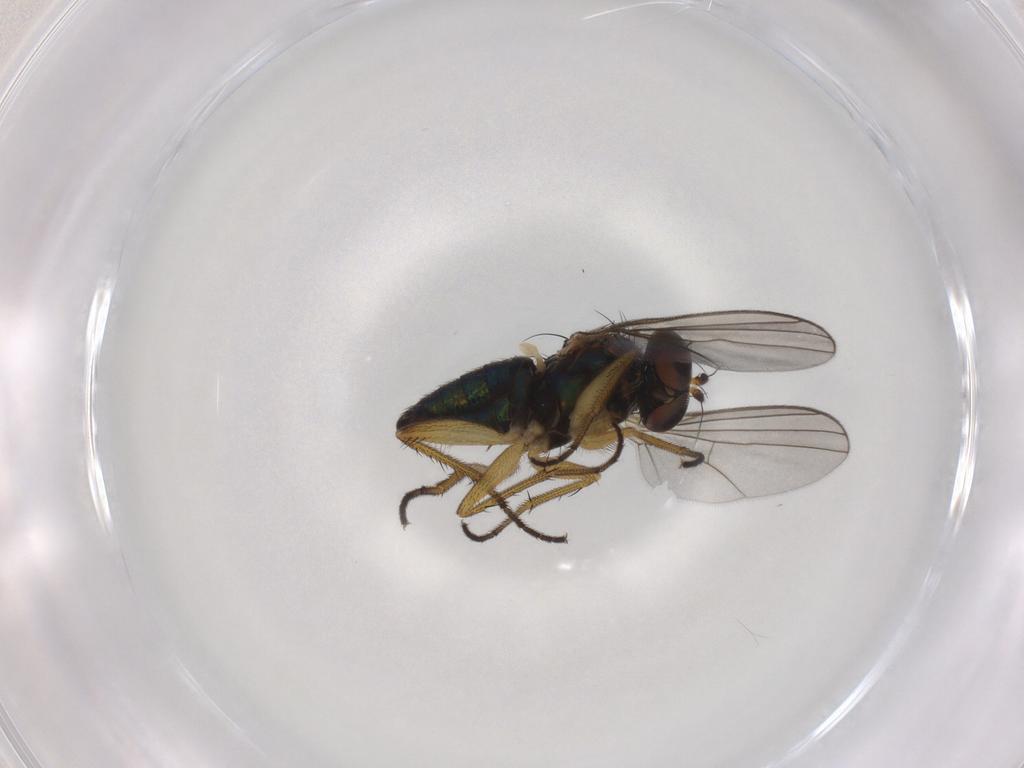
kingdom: Animalia
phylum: Arthropoda
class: Insecta
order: Diptera
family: Dolichopodidae
